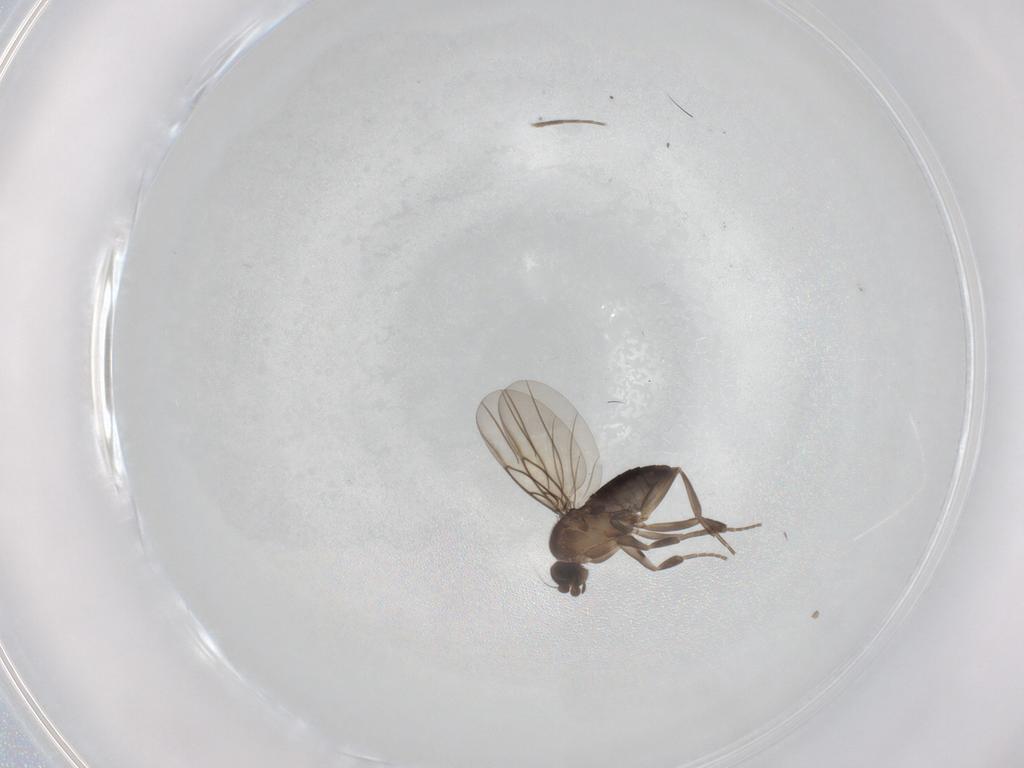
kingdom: Animalia
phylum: Arthropoda
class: Insecta
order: Diptera
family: Phoridae
